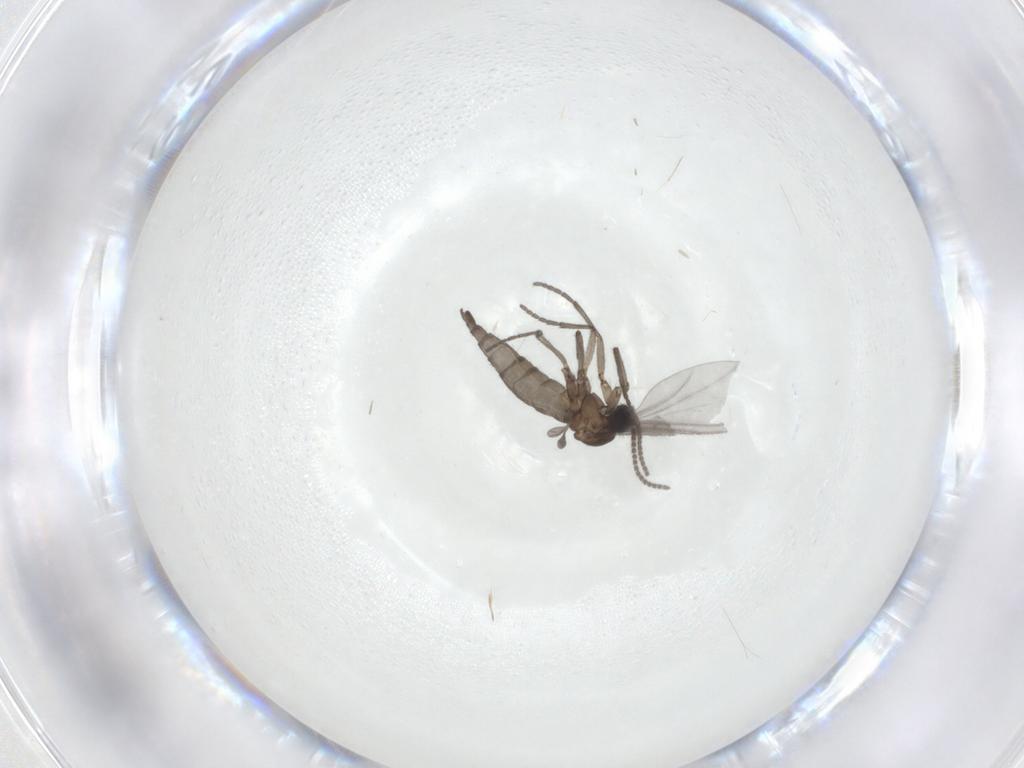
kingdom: Animalia
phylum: Arthropoda
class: Insecta
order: Diptera
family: Sciaridae
